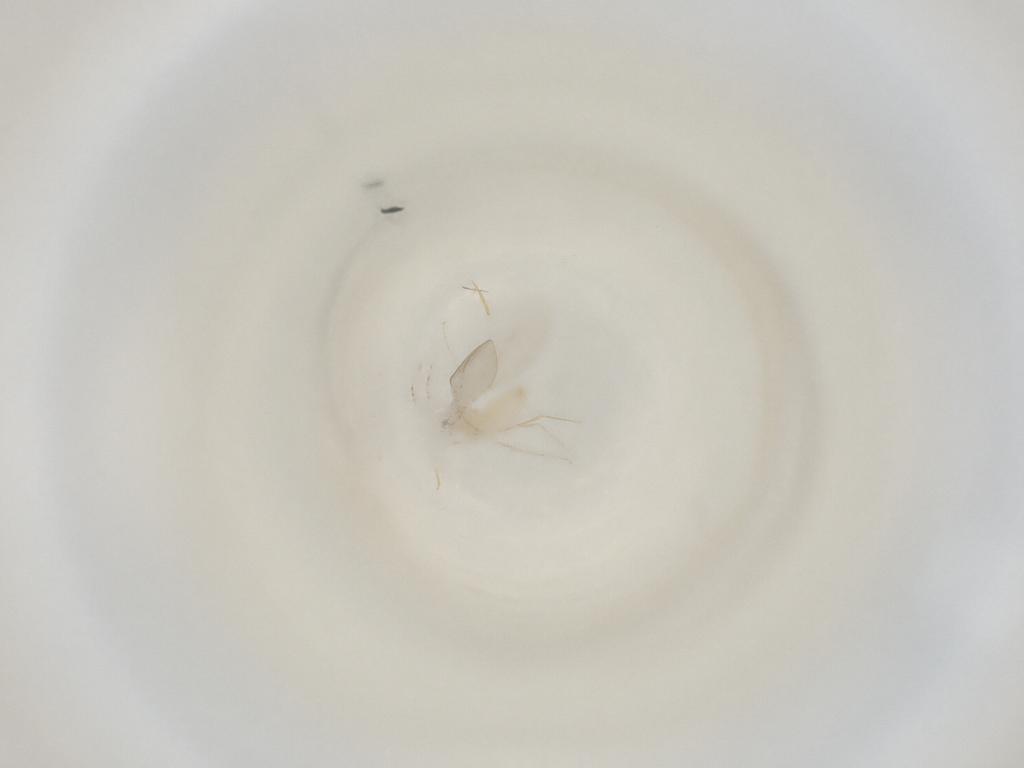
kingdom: Animalia
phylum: Arthropoda
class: Insecta
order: Diptera
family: Cecidomyiidae
